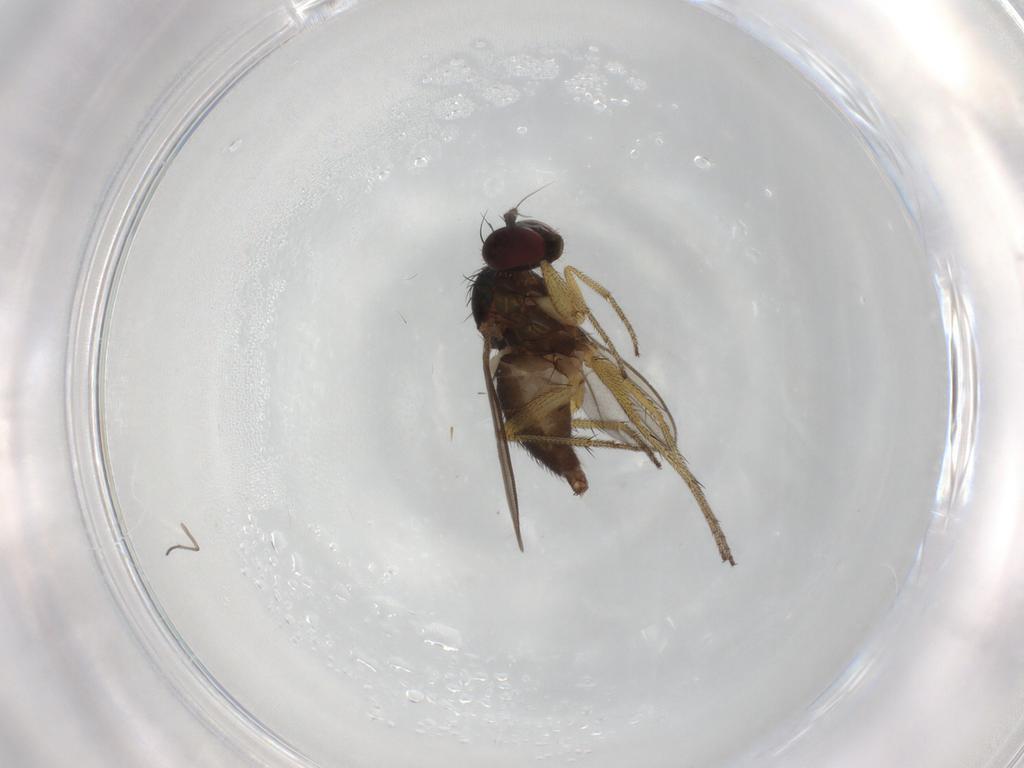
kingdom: Animalia
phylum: Arthropoda
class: Insecta
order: Diptera
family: Dolichopodidae
